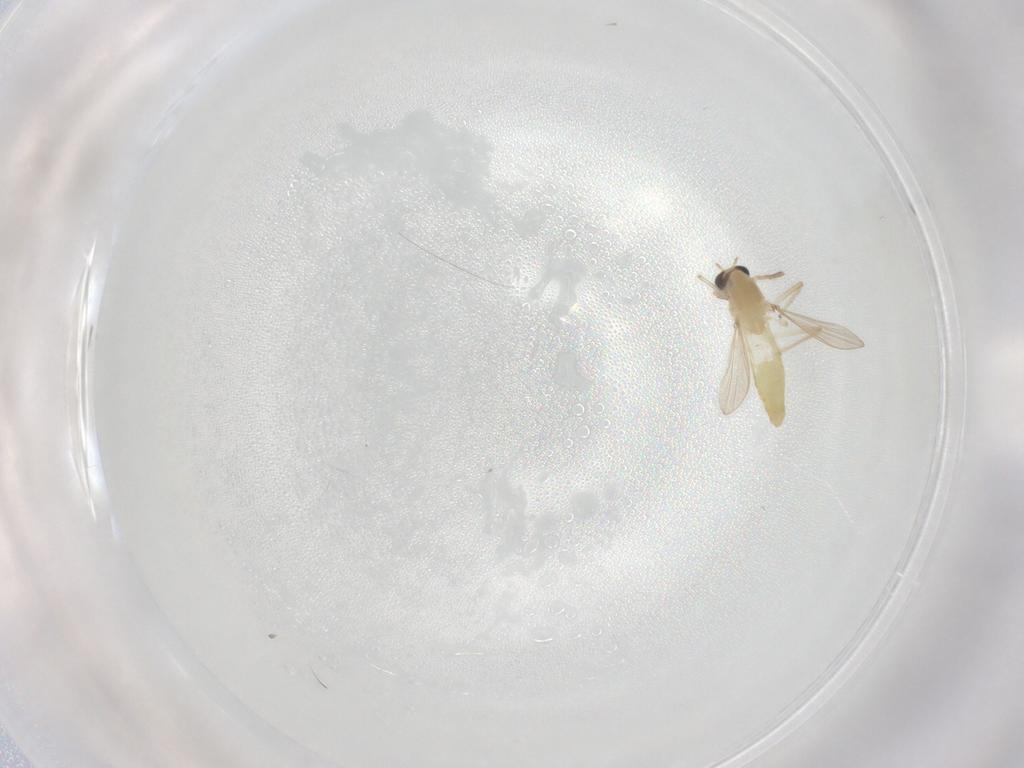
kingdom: Animalia
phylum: Arthropoda
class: Insecta
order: Diptera
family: Chironomidae
